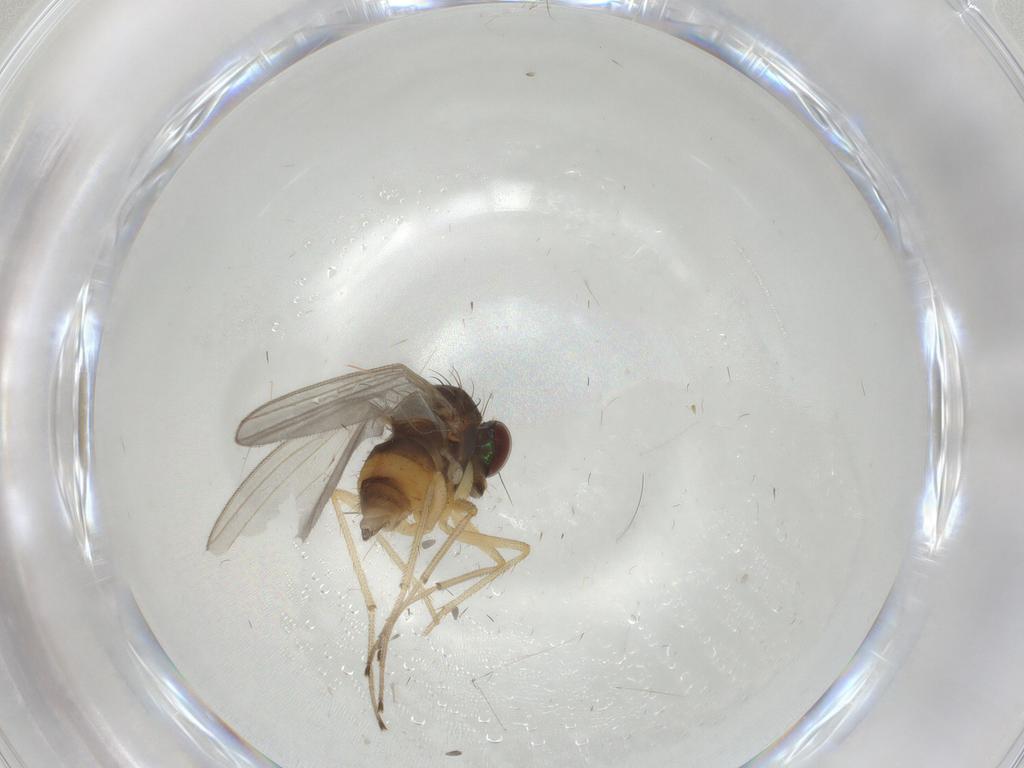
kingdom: Animalia
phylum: Arthropoda
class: Insecta
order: Diptera
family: Dolichopodidae
